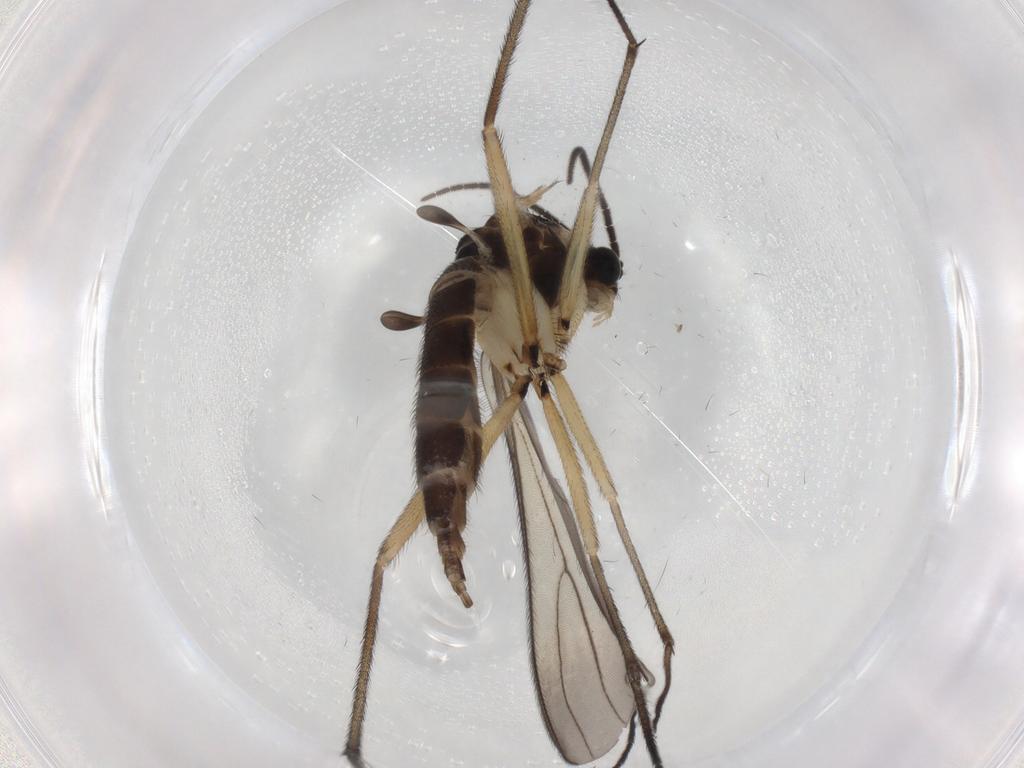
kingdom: Animalia
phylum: Arthropoda
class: Insecta
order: Diptera
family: Sciaridae
